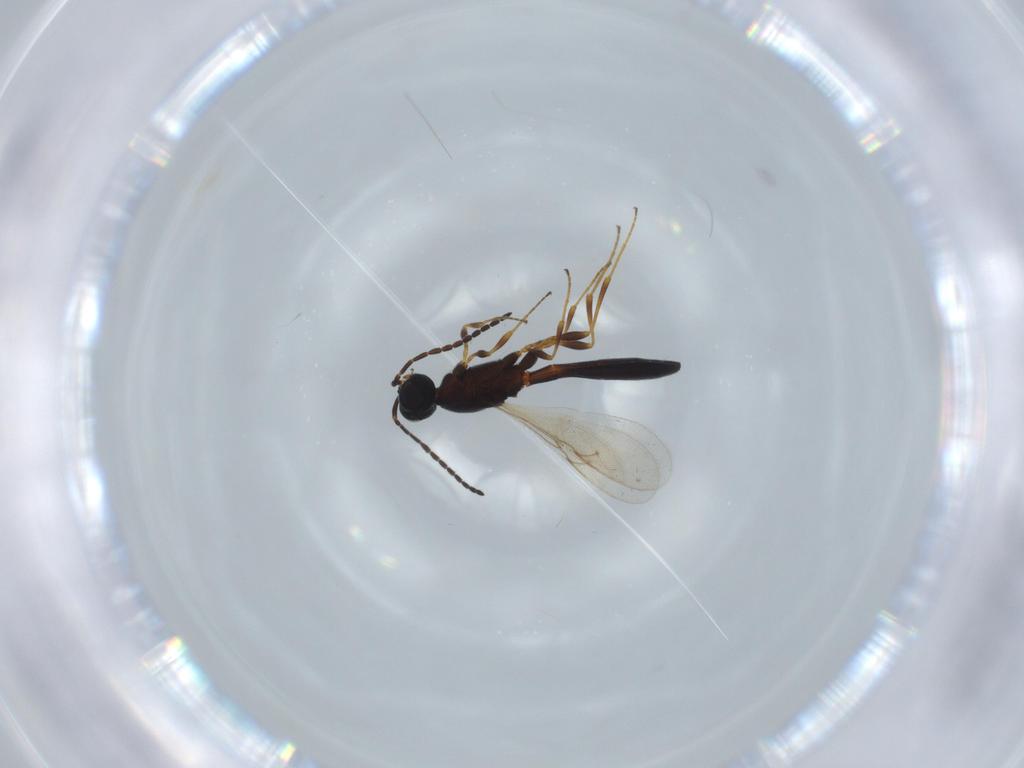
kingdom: Animalia
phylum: Arthropoda
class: Insecta
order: Hymenoptera
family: Scelionidae
